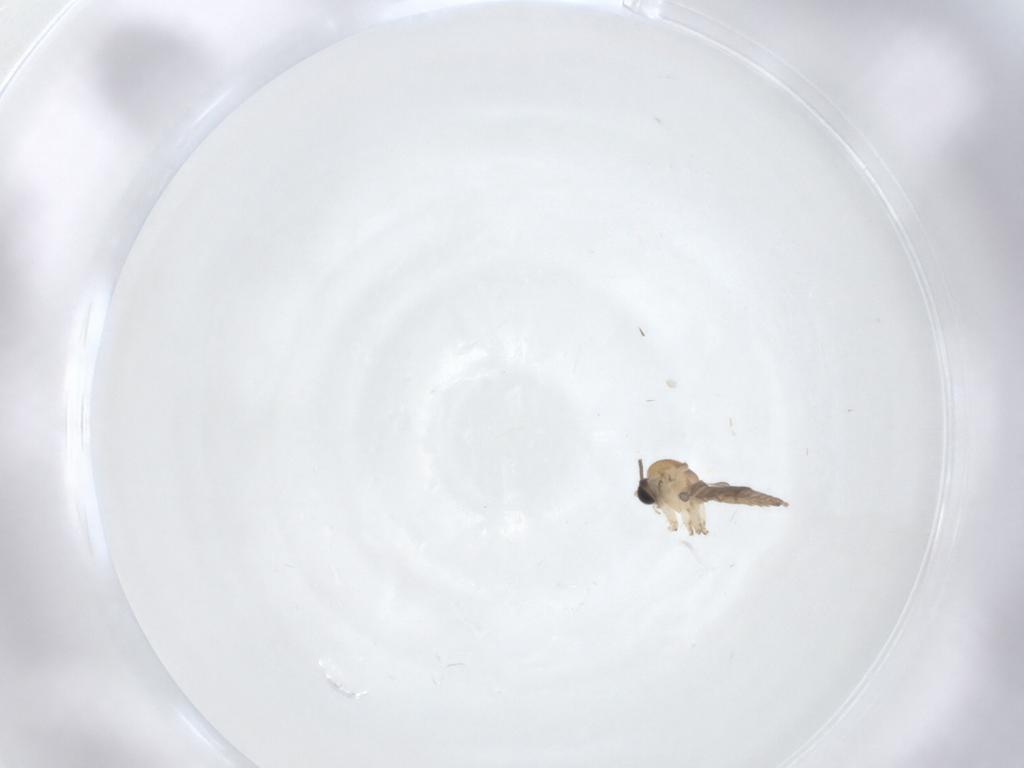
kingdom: Animalia
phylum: Arthropoda
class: Insecta
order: Diptera
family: Sciaridae
